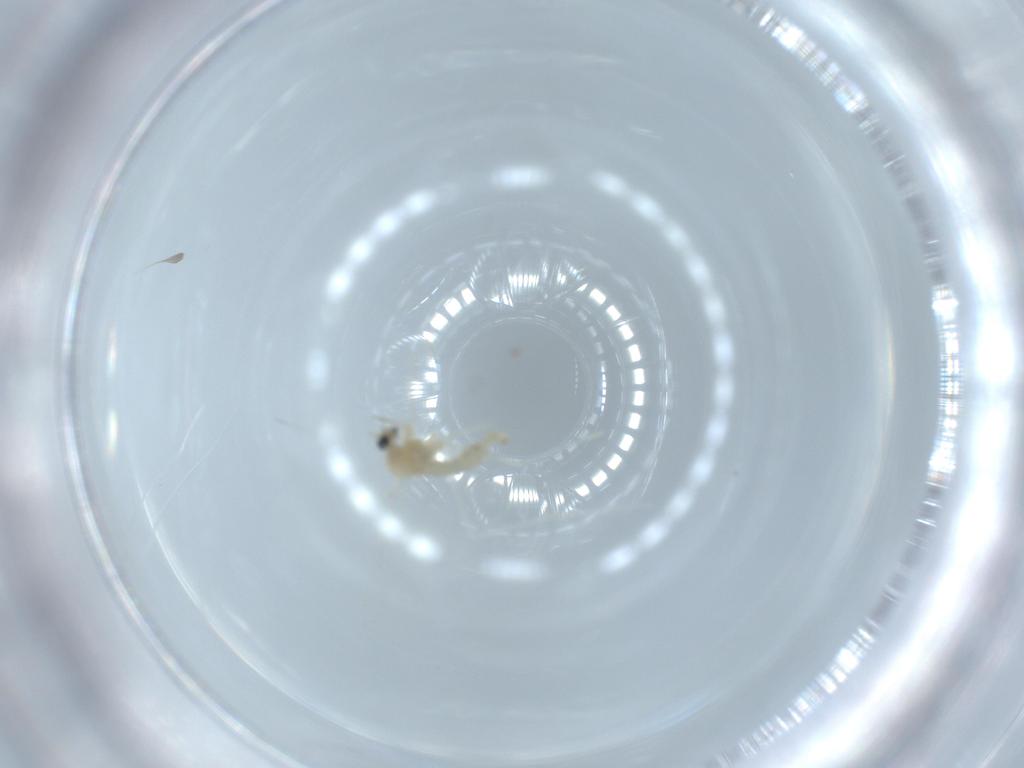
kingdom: Animalia
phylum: Arthropoda
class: Insecta
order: Diptera
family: Cecidomyiidae
